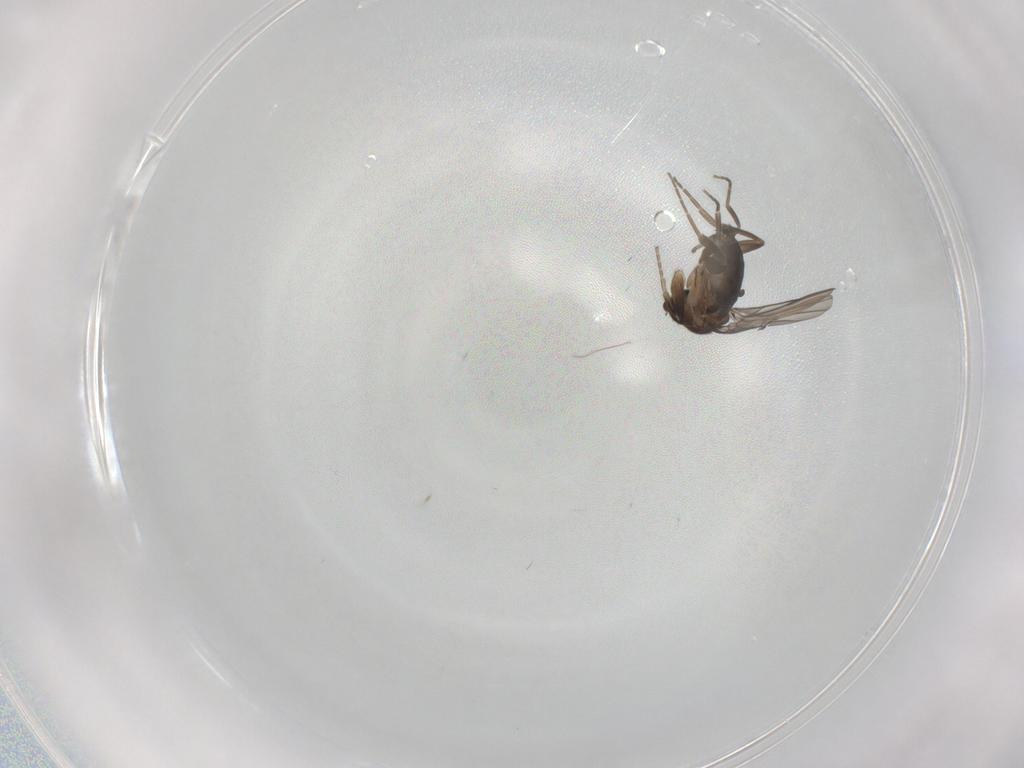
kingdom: Animalia
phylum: Arthropoda
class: Insecta
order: Diptera
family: Phoridae
